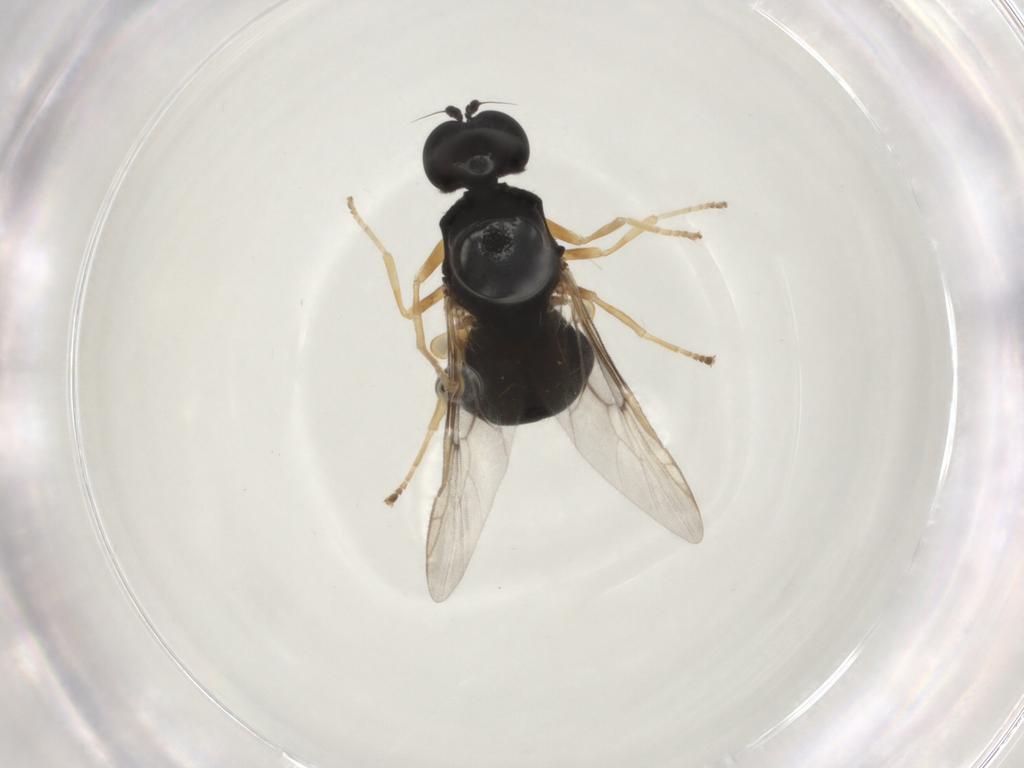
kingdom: Animalia
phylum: Arthropoda
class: Insecta
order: Diptera
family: Stratiomyidae
